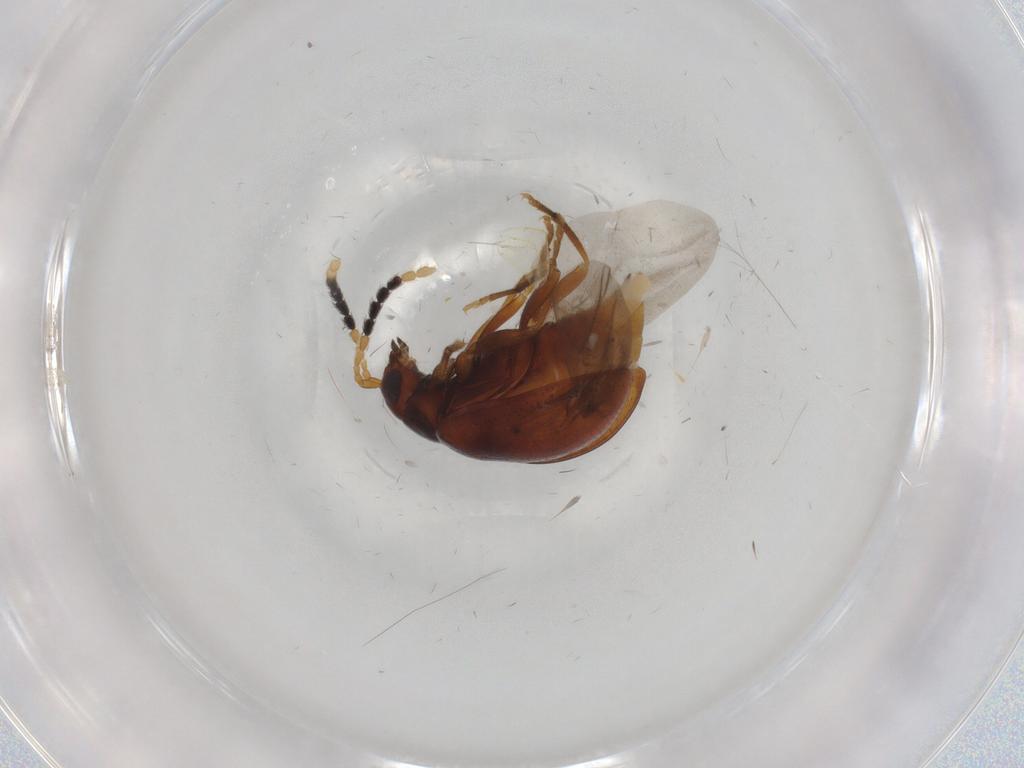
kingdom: Animalia
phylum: Arthropoda
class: Insecta
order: Coleoptera
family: Chrysomelidae
